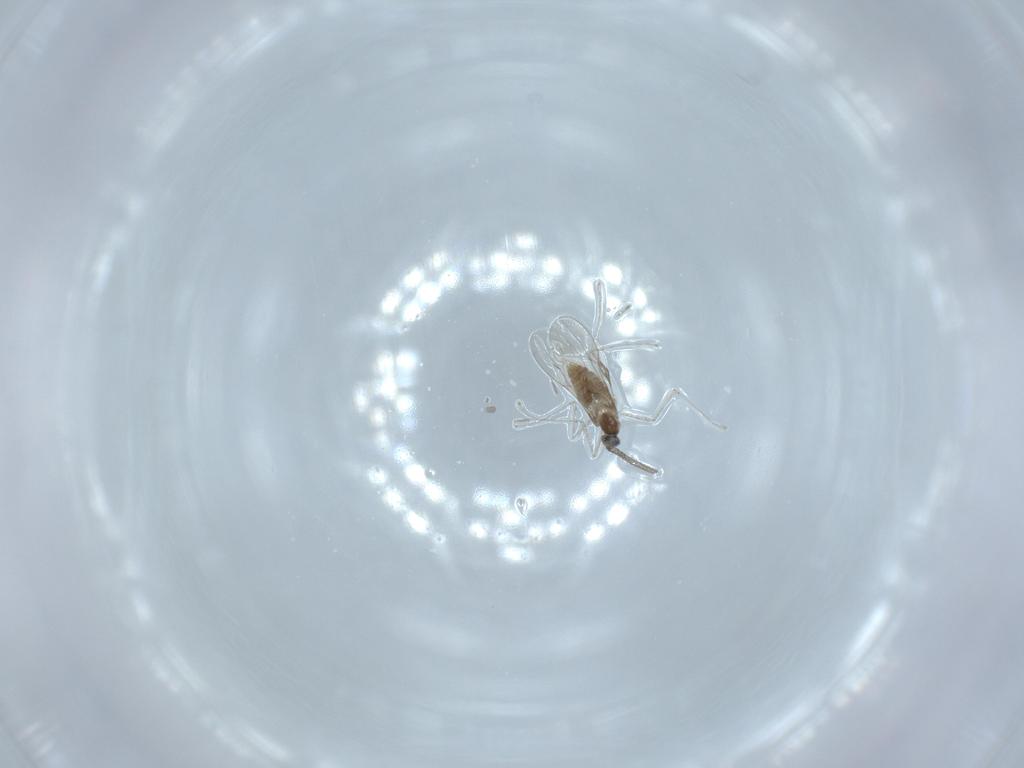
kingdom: Animalia
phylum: Arthropoda
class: Insecta
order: Diptera
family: Cecidomyiidae
